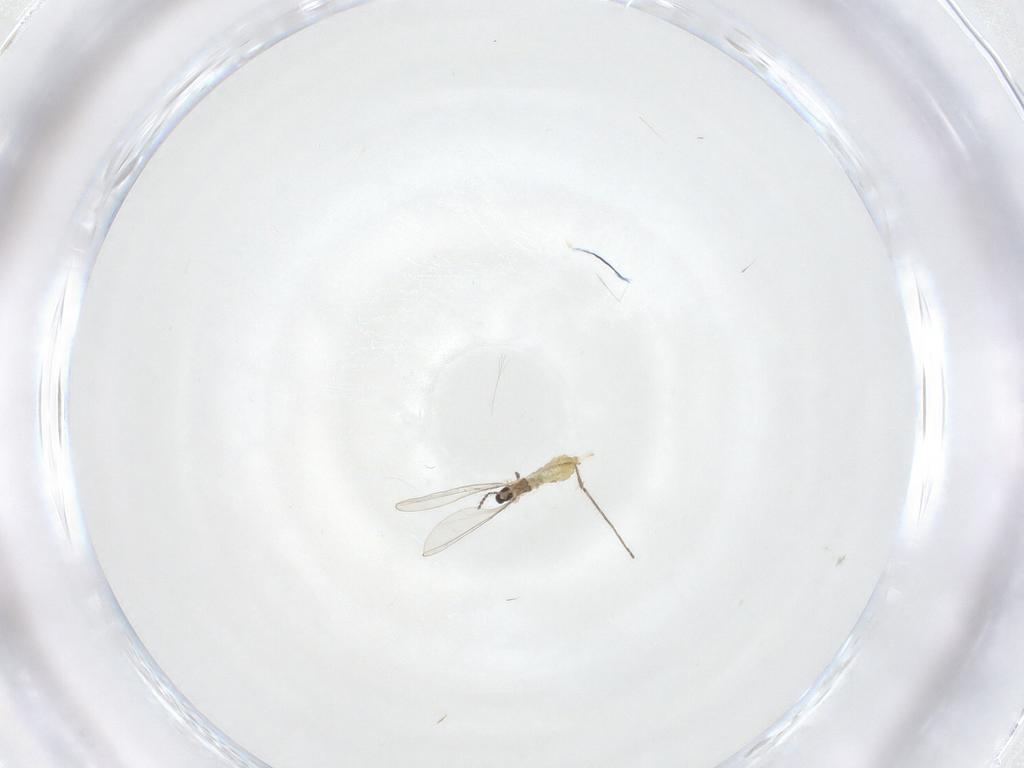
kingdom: Animalia
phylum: Arthropoda
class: Insecta
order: Diptera
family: Cecidomyiidae
